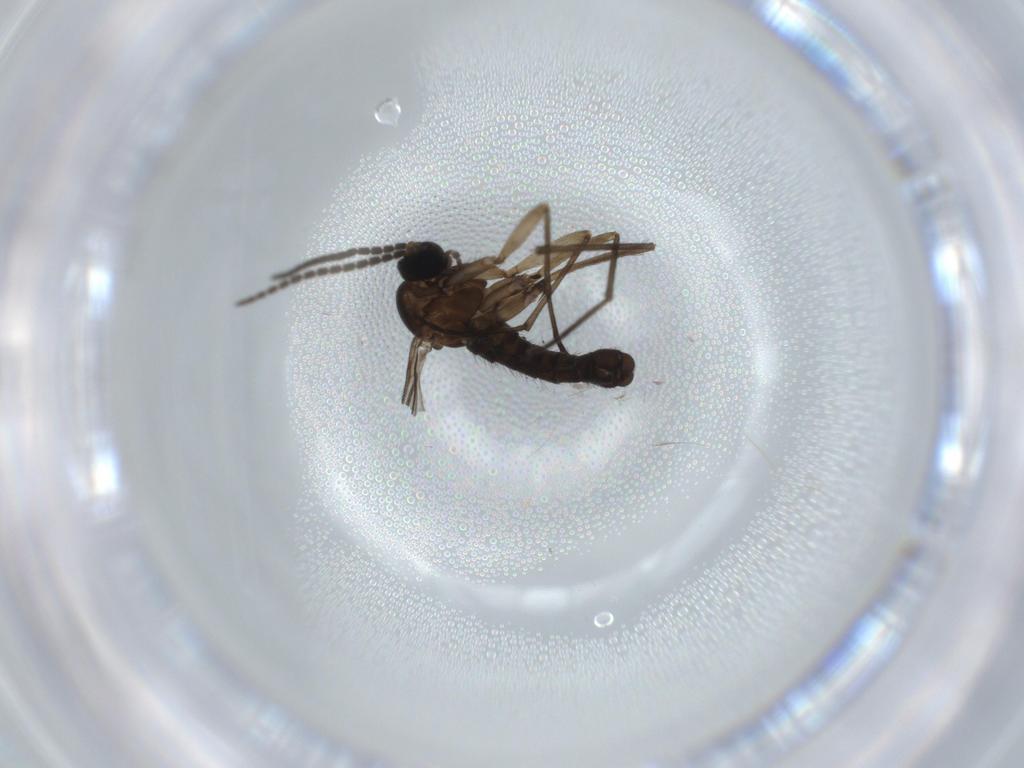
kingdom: Animalia
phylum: Arthropoda
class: Insecta
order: Diptera
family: Sciaridae
